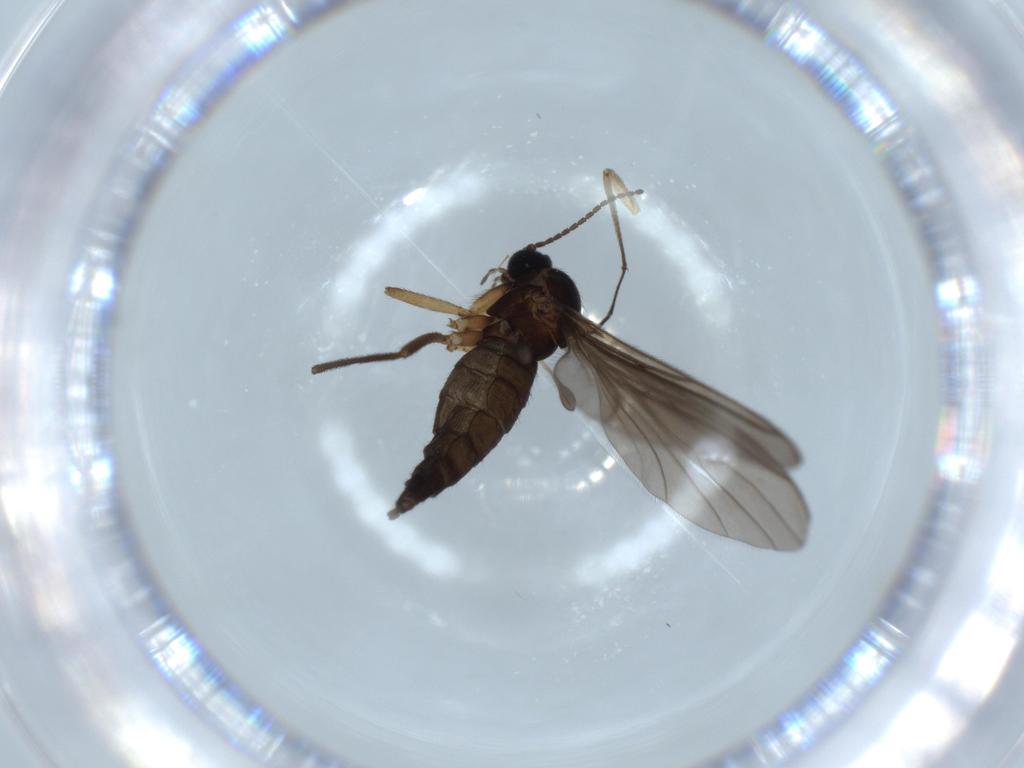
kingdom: Animalia
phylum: Arthropoda
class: Insecta
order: Diptera
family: Sciaridae
